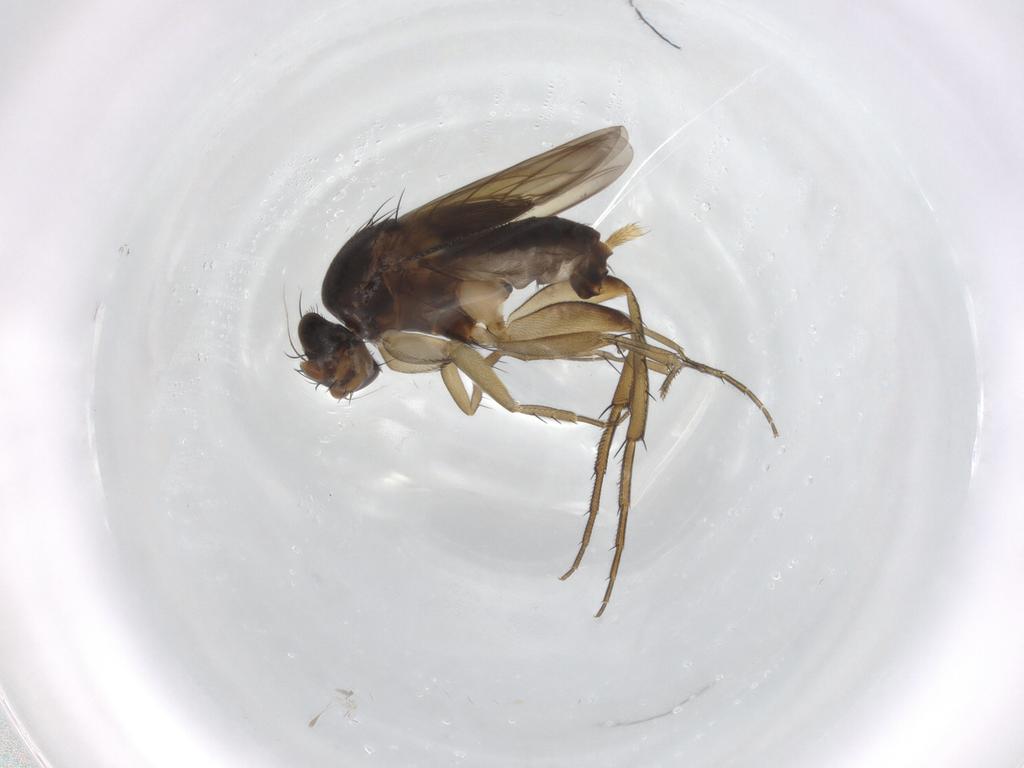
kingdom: Animalia
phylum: Arthropoda
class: Insecta
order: Diptera
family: Phoridae
